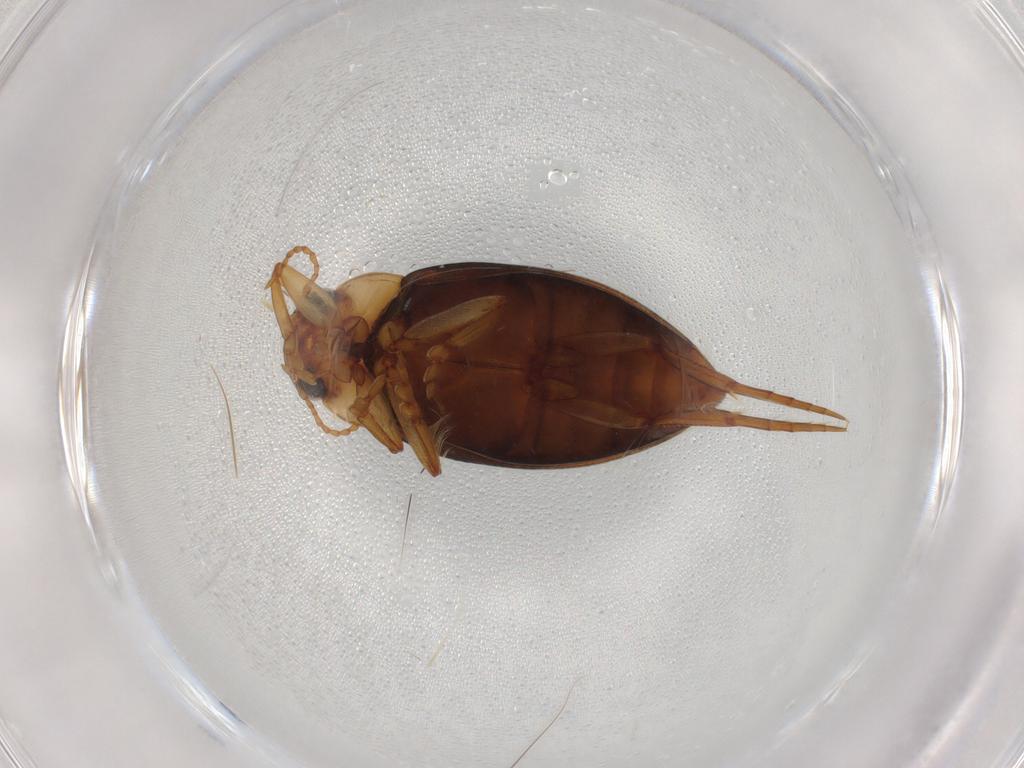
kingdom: Animalia
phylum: Arthropoda
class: Insecta
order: Coleoptera
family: Dytiscidae
